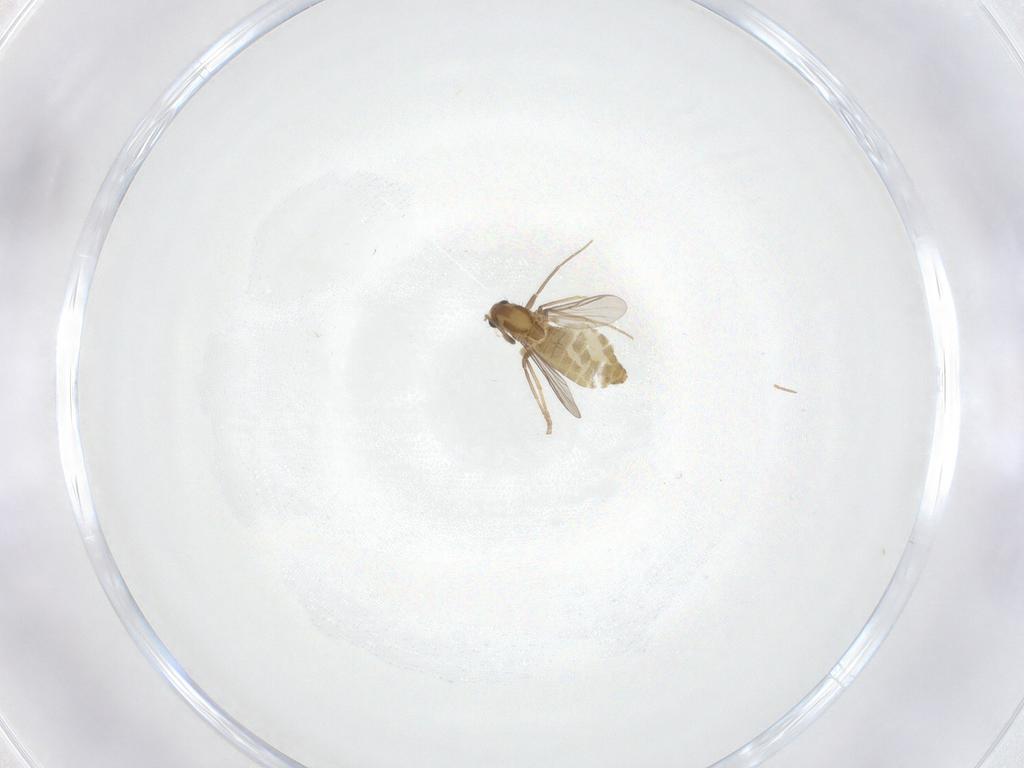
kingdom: Animalia
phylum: Arthropoda
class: Insecta
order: Diptera
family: Chironomidae
